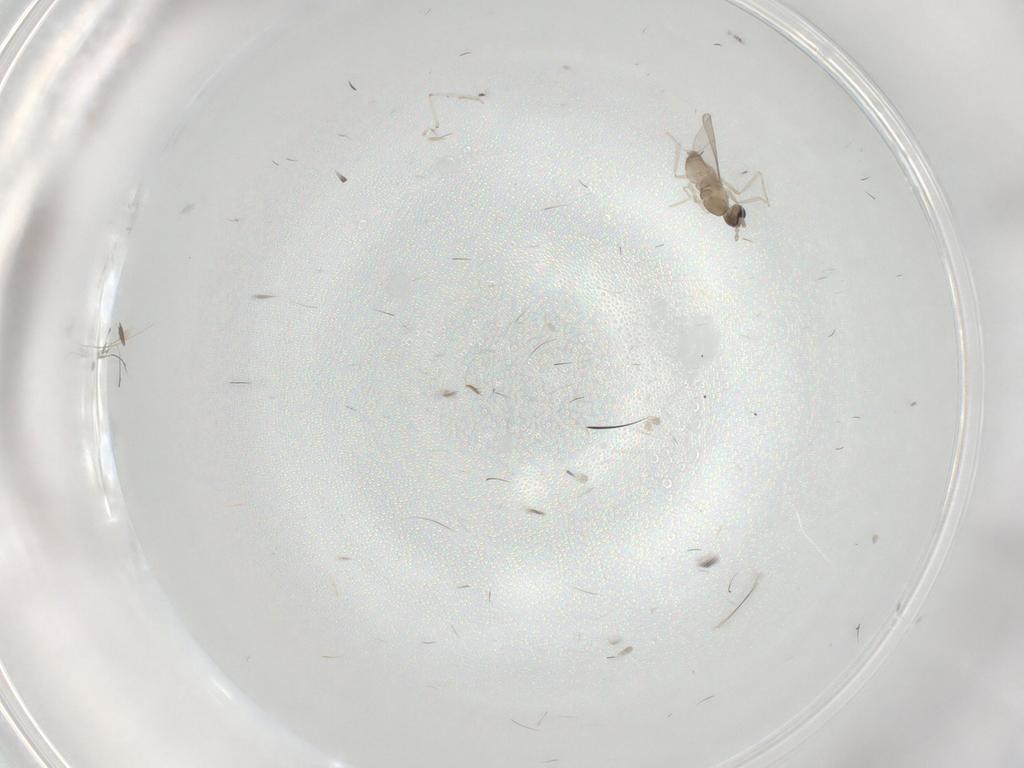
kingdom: Animalia
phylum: Arthropoda
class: Insecta
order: Diptera
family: Cecidomyiidae
